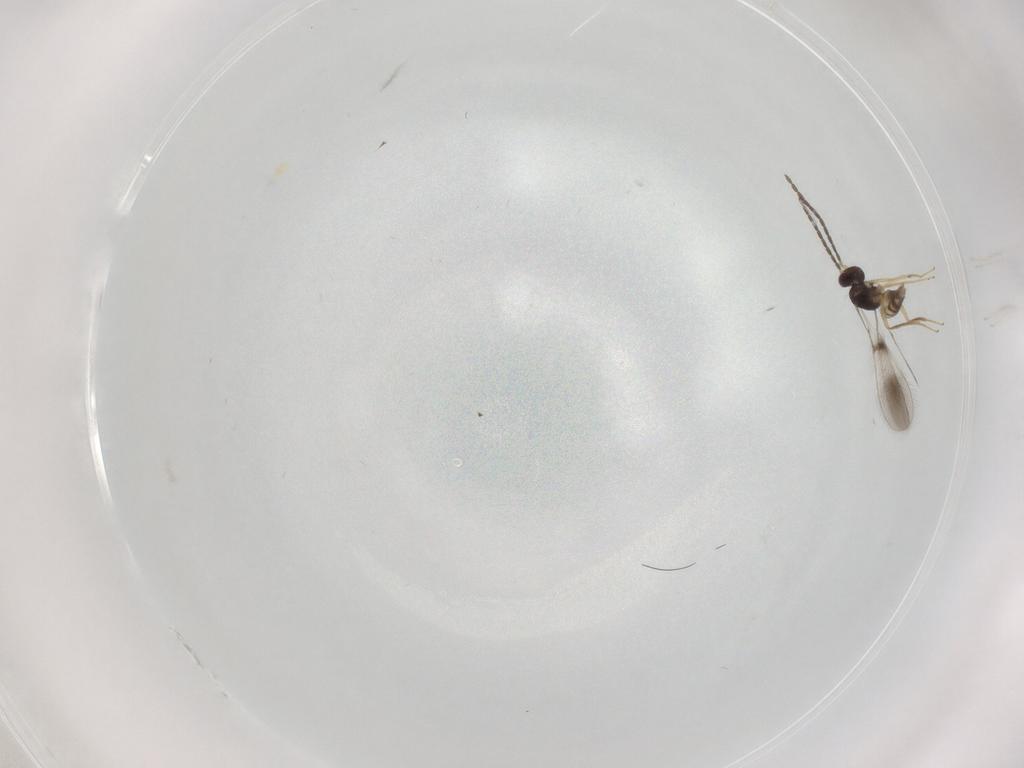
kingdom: Animalia
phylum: Arthropoda
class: Insecta
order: Hymenoptera
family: Mymaridae
